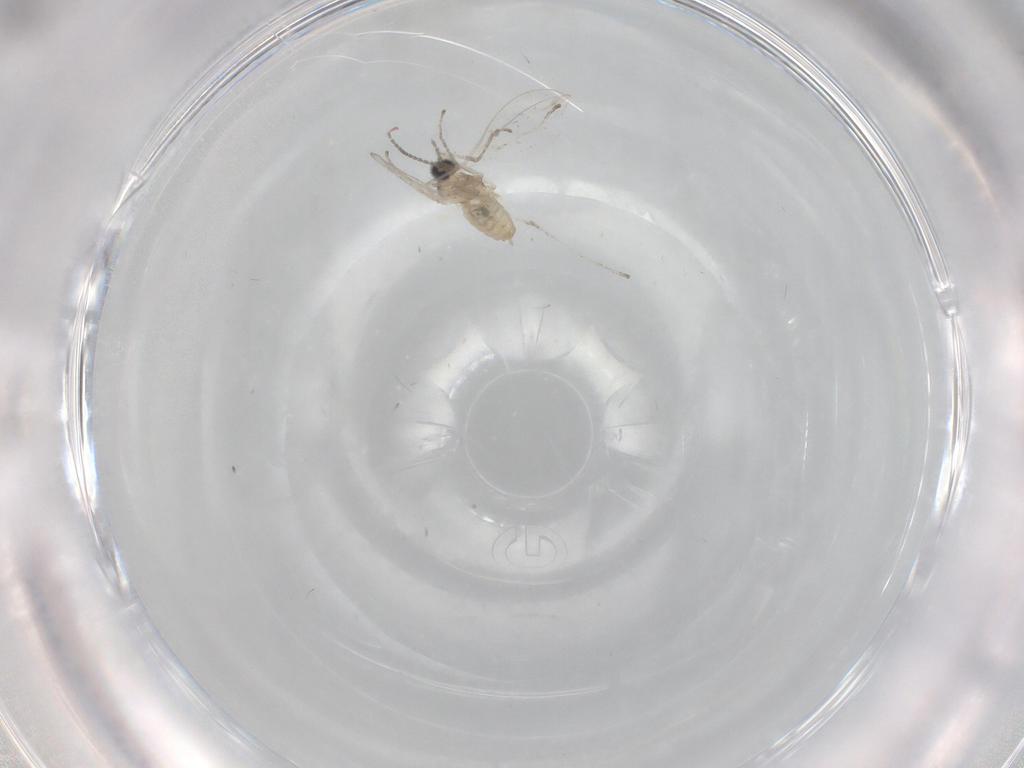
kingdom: Animalia
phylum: Arthropoda
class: Insecta
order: Diptera
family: Cecidomyiidae
